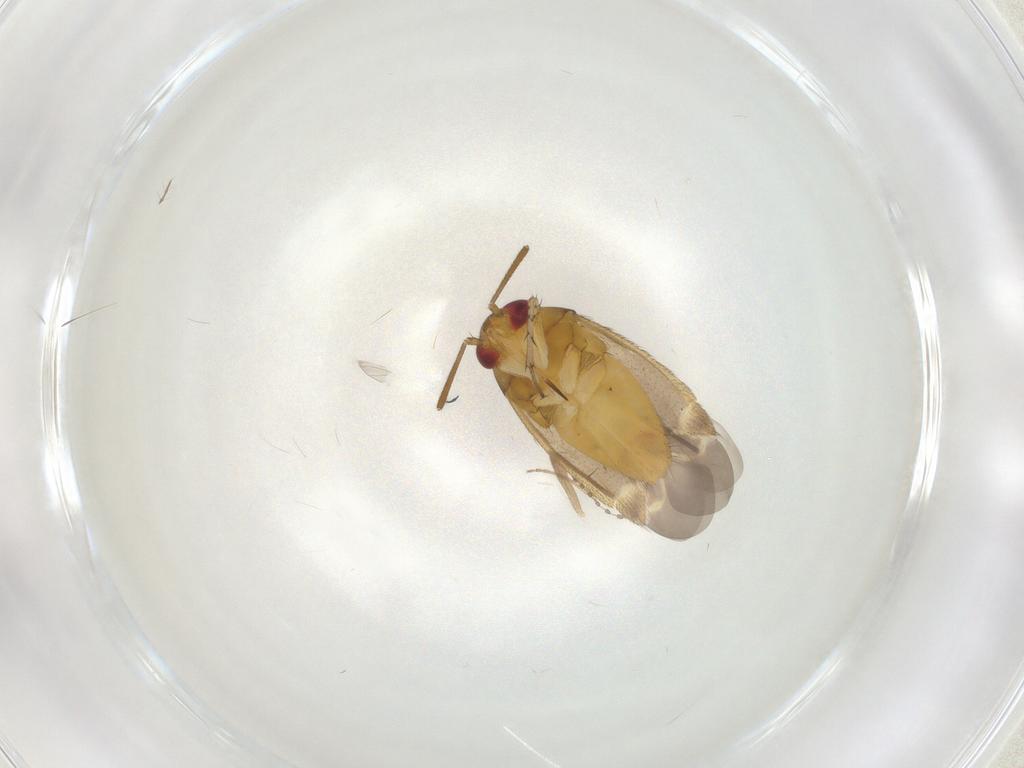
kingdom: Animalia
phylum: Arthropoda
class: Insecta
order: Hemiptera
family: Miridae
